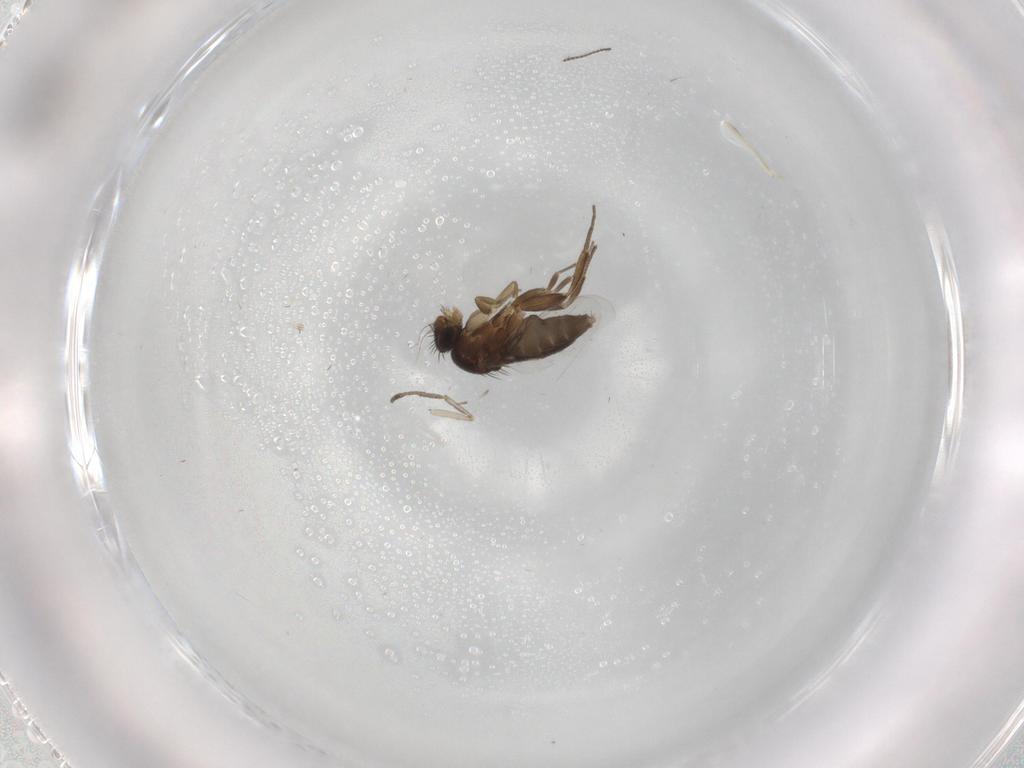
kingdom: Animalia
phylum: Arthropoda
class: Insecta
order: Diptera
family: Phoridae
